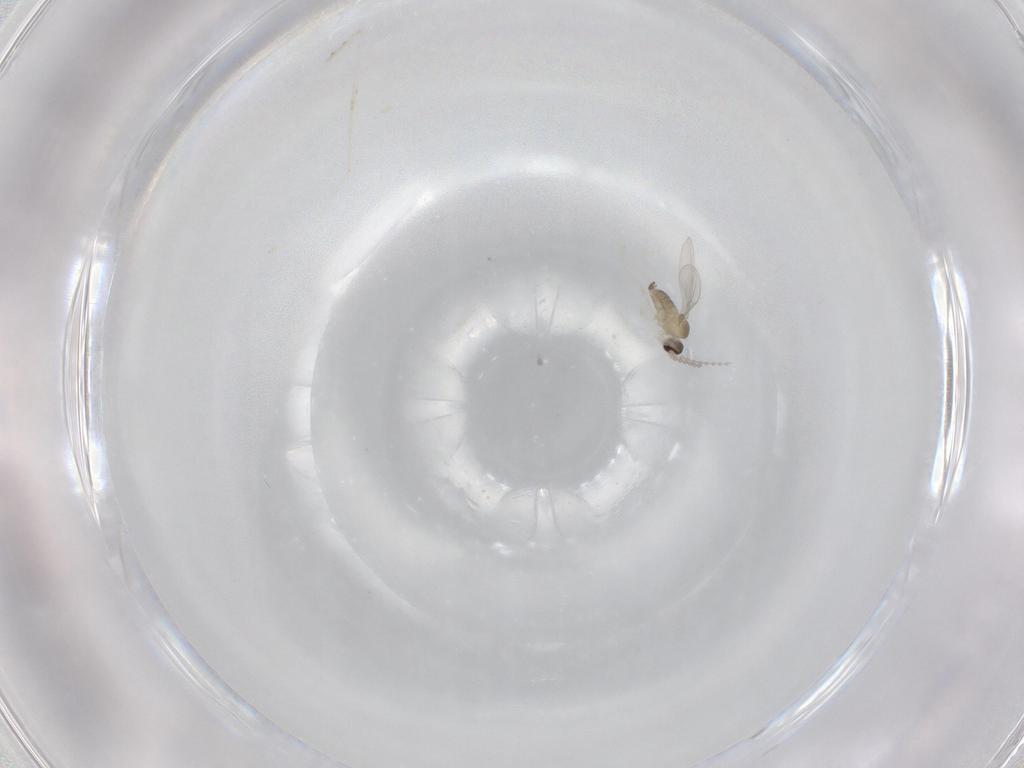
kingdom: Animalia
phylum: Arthropoda
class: Insecta
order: Diptera
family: Cecidomyiidae
